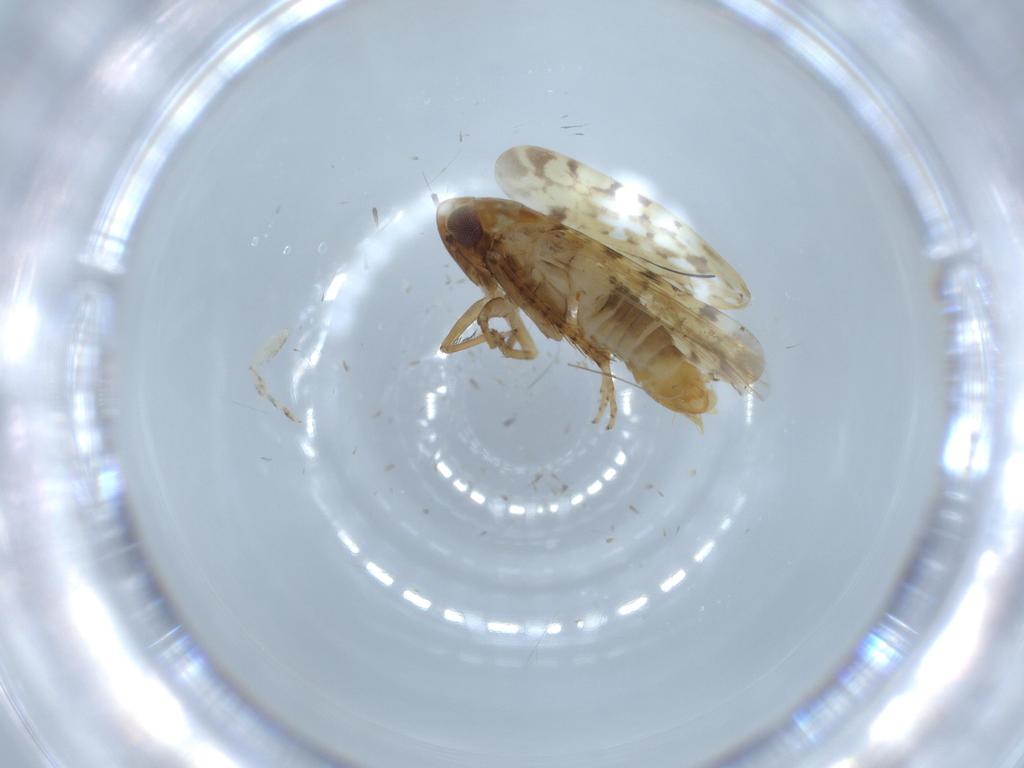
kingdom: Animalia
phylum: Arthropoda
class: Insecta
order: Hemiptera
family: Cicadellidae
